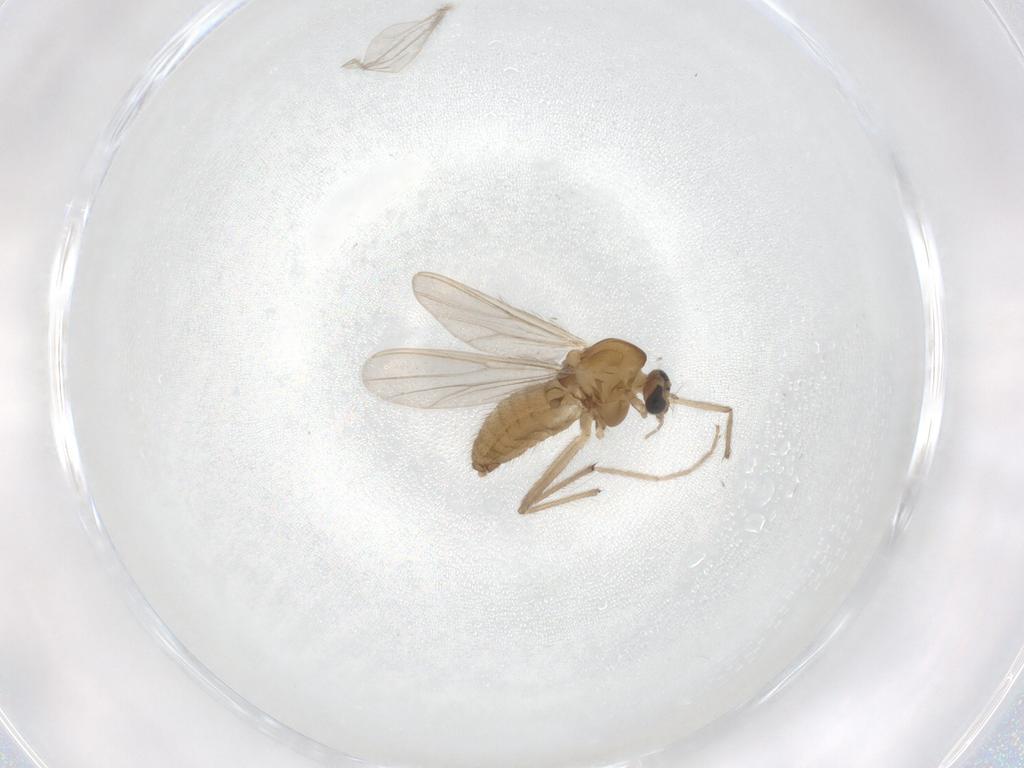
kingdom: Animalia
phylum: Arthropoda
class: Insecta
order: Diptera
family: Chironomidae
